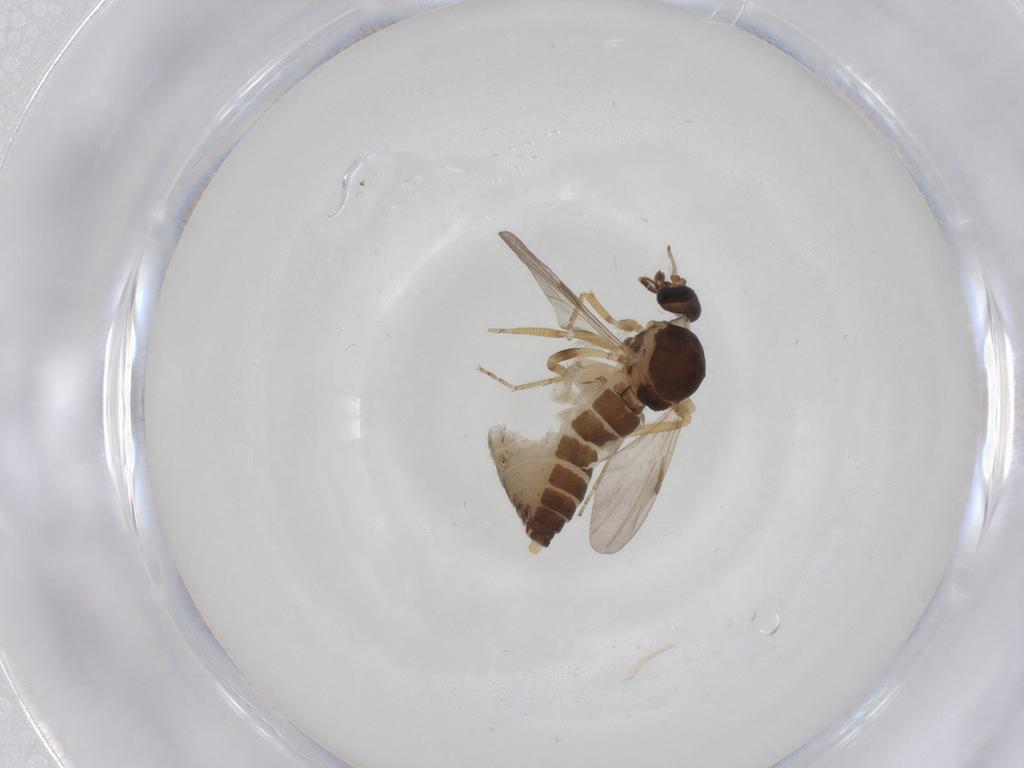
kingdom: Animalia
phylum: Arthropoda
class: Insecta
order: Diptera
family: Ceratopogonidae
